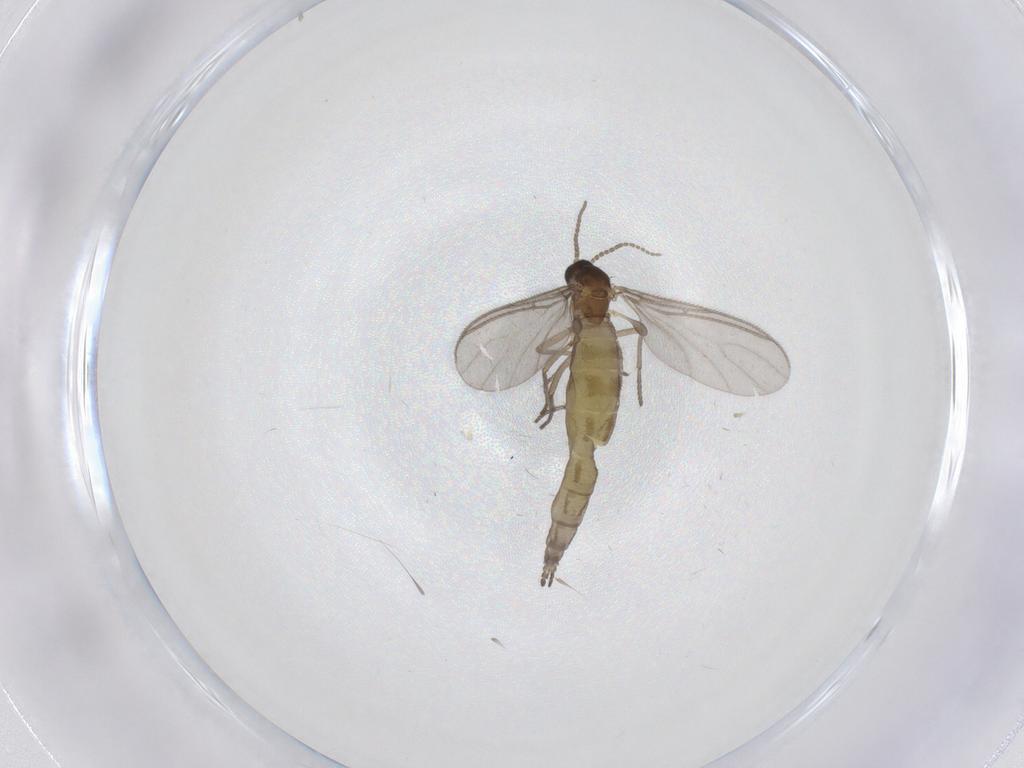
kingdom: Animalia
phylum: Arthropoda
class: Insecta
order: Diptera
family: Sciaridae
